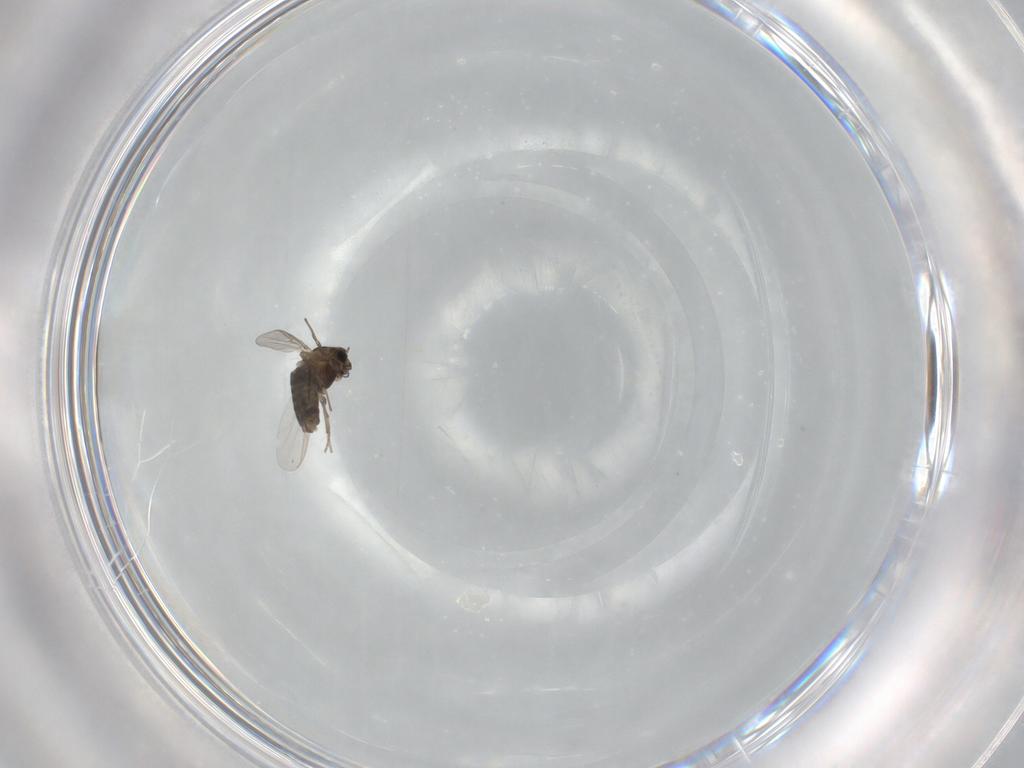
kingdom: Animalia
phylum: Arthropoda
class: Insecta
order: Diptera
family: Chironomidae
